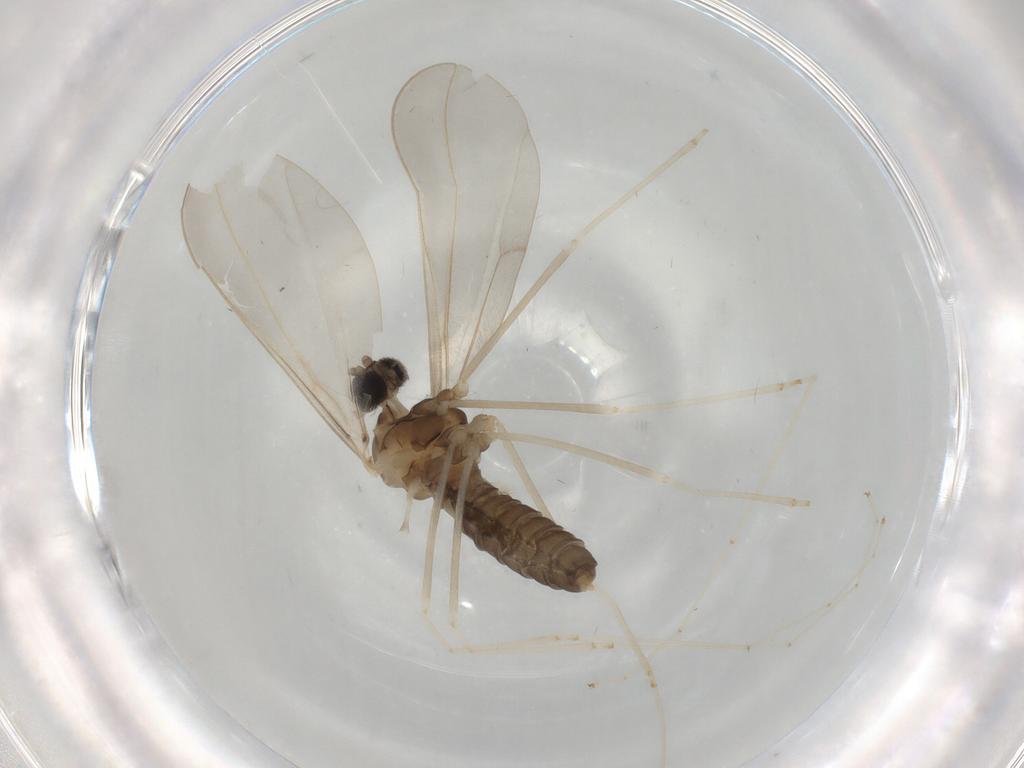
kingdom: Animalia
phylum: Arthropoda
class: Insecta
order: Diptera
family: Cecidomyiidae
